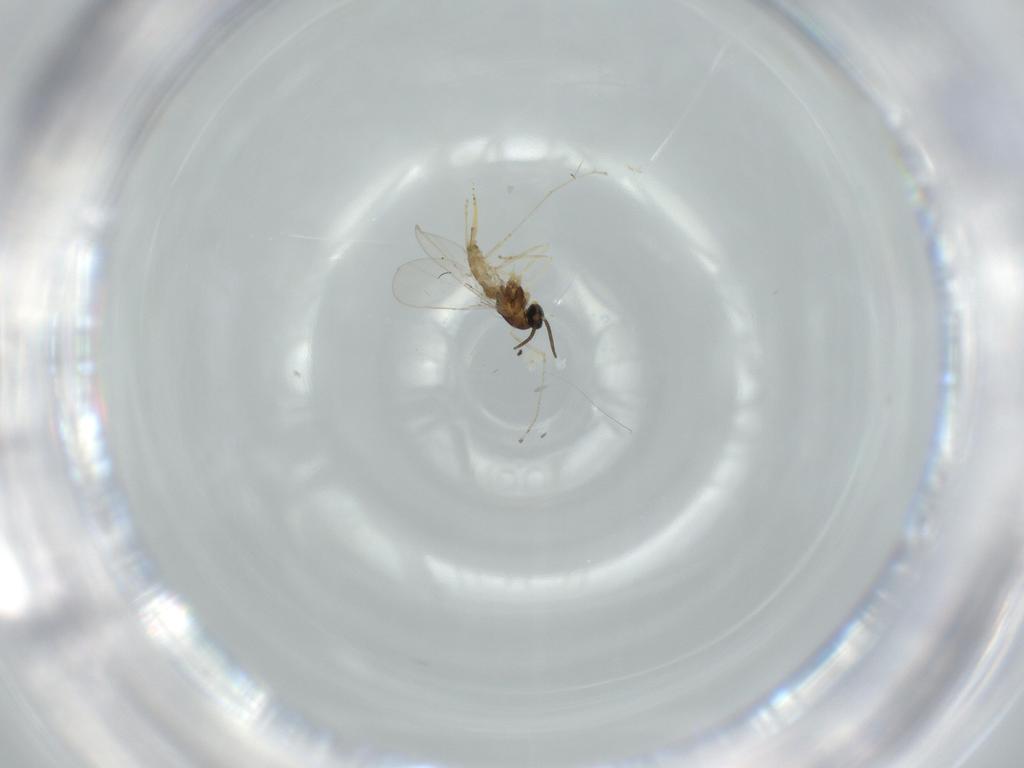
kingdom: Animalia
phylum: Arthropoda
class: Insecta
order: Diptera
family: Cecidomyiidae
